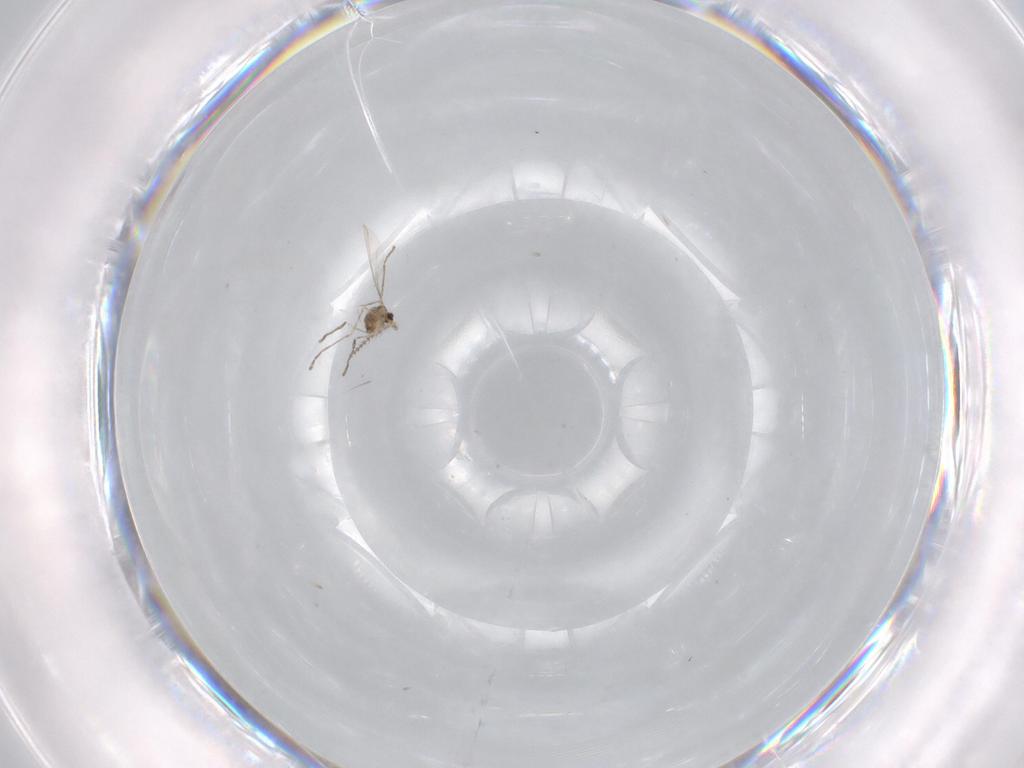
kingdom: Animalia
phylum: Arthropoda
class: Insecta
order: Diptera
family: Cecidomyiidae
